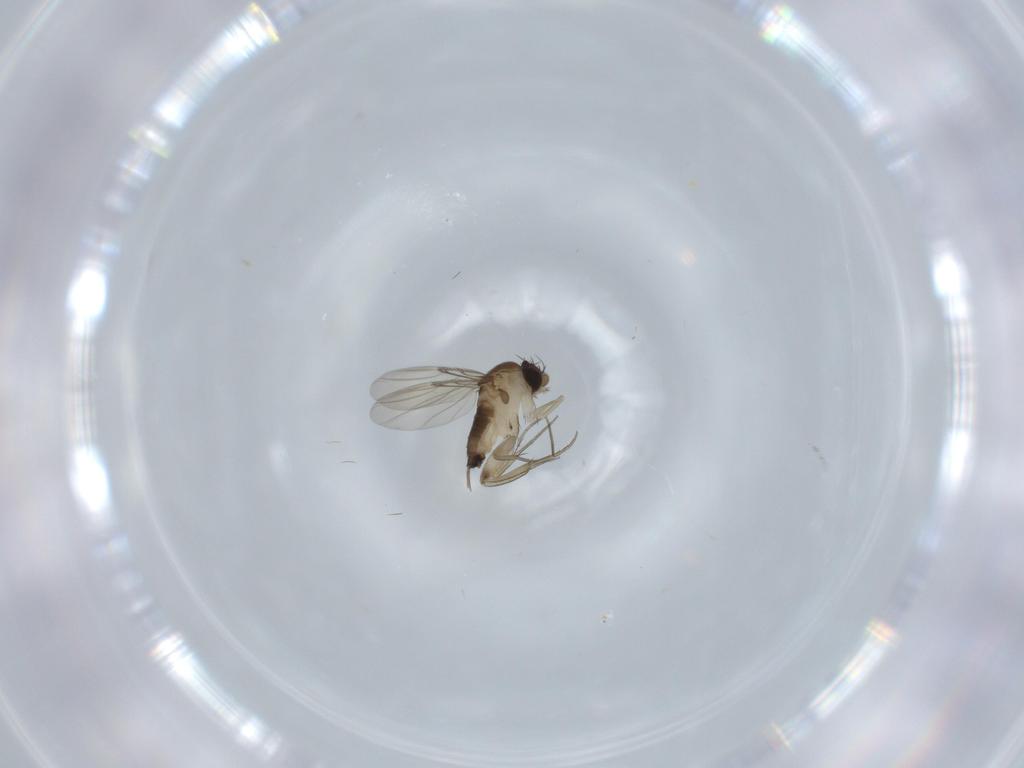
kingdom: Animalia
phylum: Arthropoda
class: Insecta
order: Diptera
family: Phoridae
